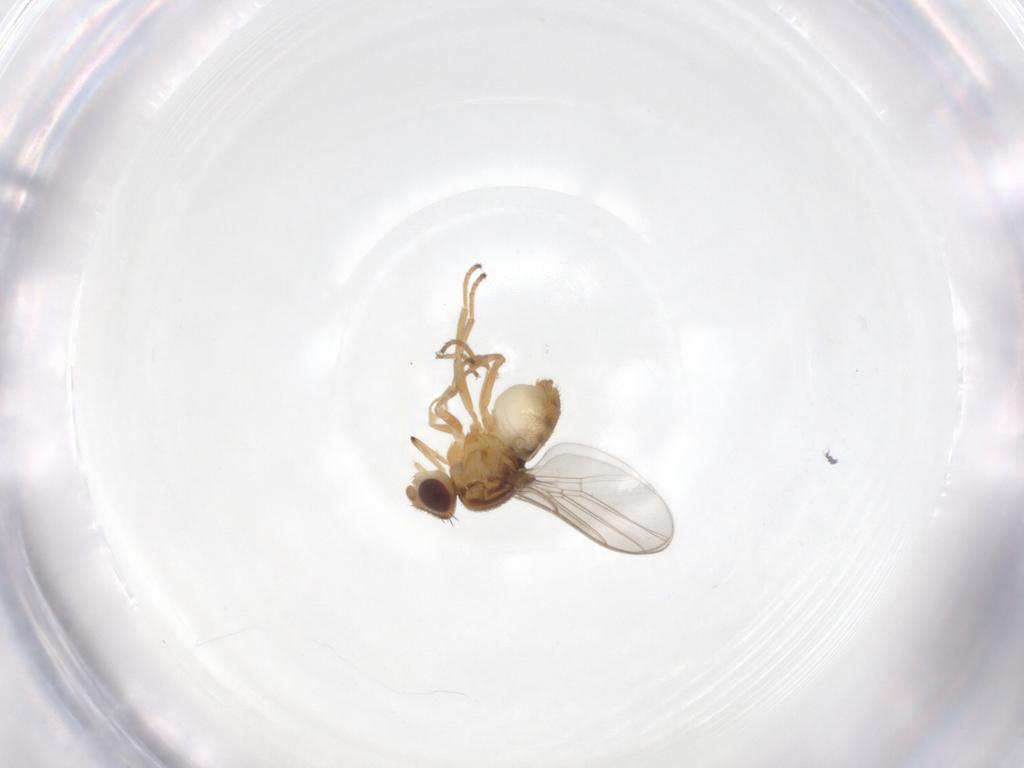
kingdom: Animalia
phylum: Arthropoda
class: Insecta
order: Diptera
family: Chloropidae
